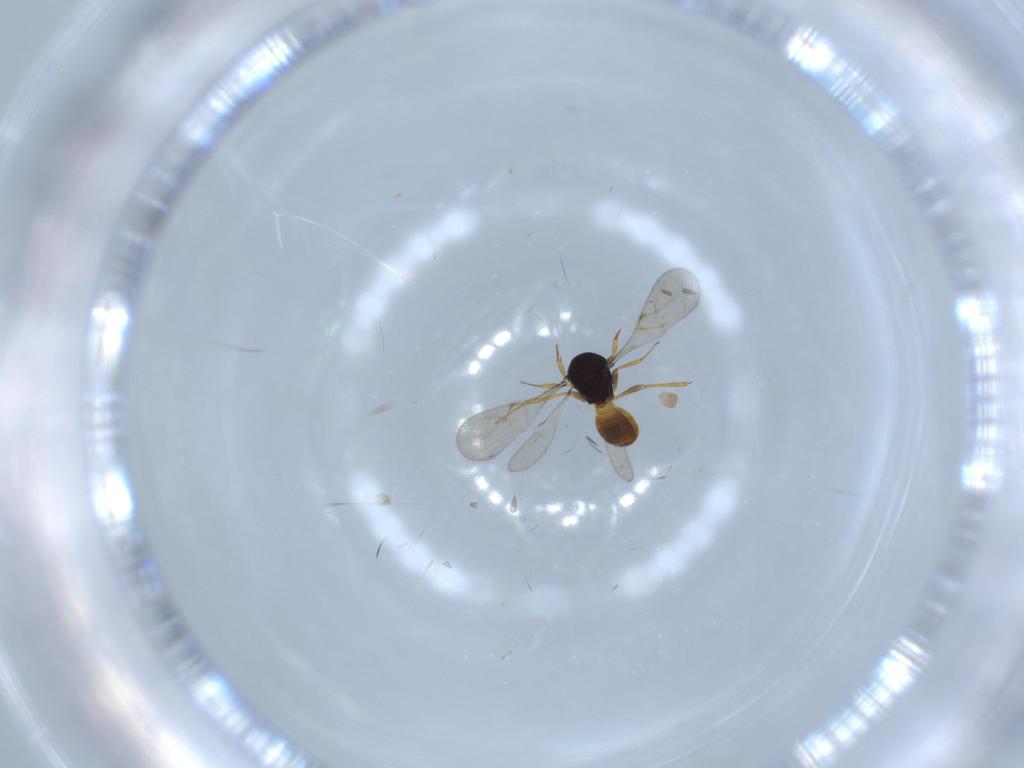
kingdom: Animalia
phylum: Arthropoda
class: Insecta
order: Hymenoptera
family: Scelionidae
